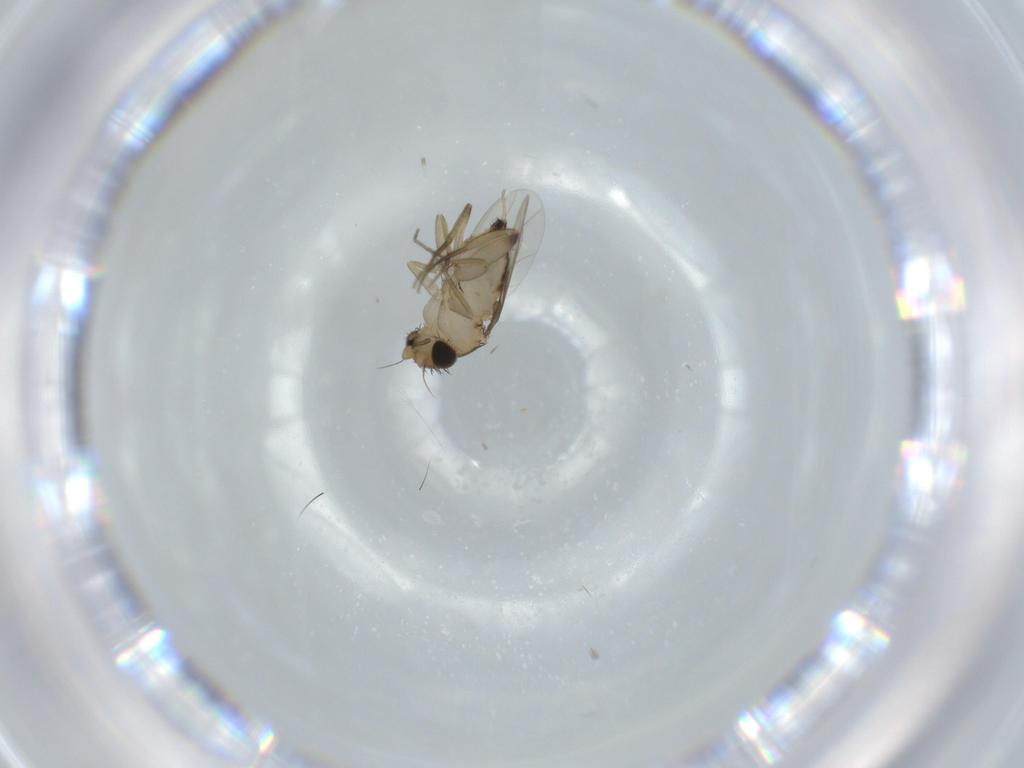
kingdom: Animalia
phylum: Arthropoda
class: Insecta
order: Diptera
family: Phoridae
